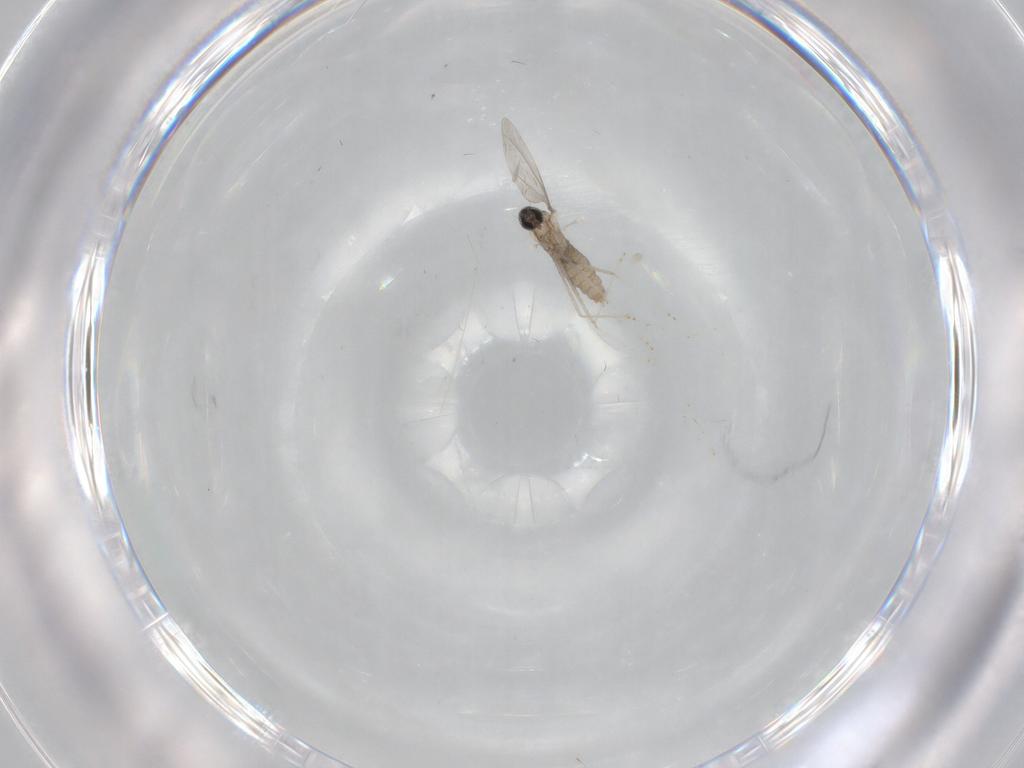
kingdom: Animalia
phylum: Arthropoda
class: Insecta
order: Diptera
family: Cecidomyiidae
